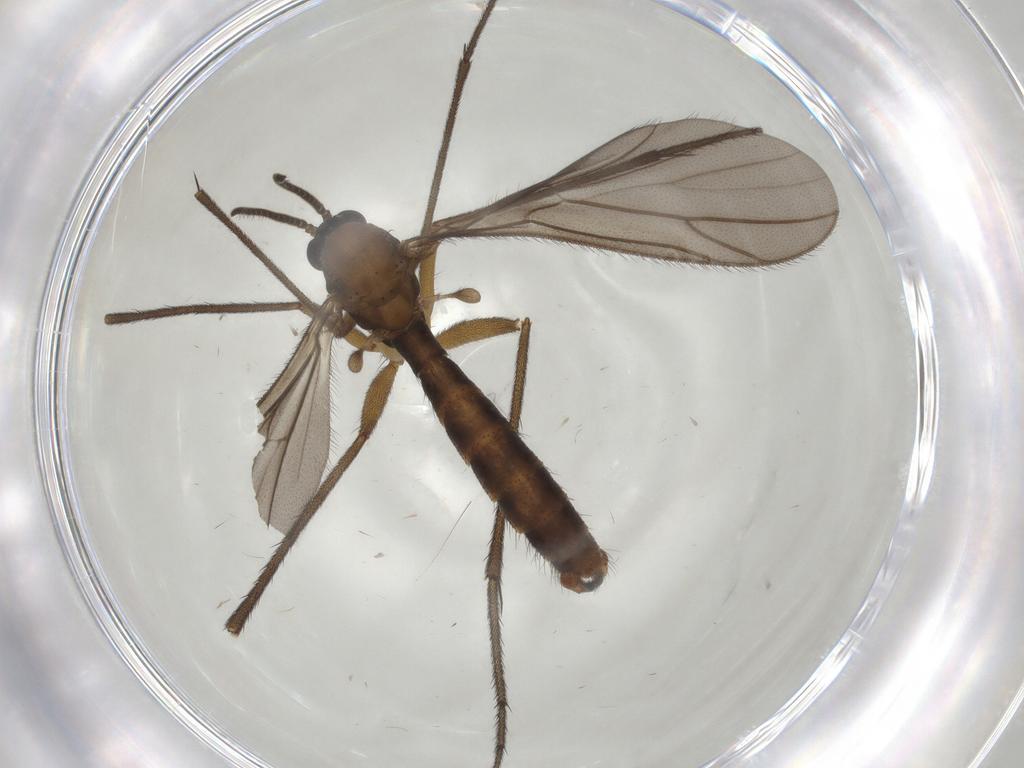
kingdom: Animalia
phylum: Arthropoda
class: Insecta
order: Diptera
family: Ditomyiidae
